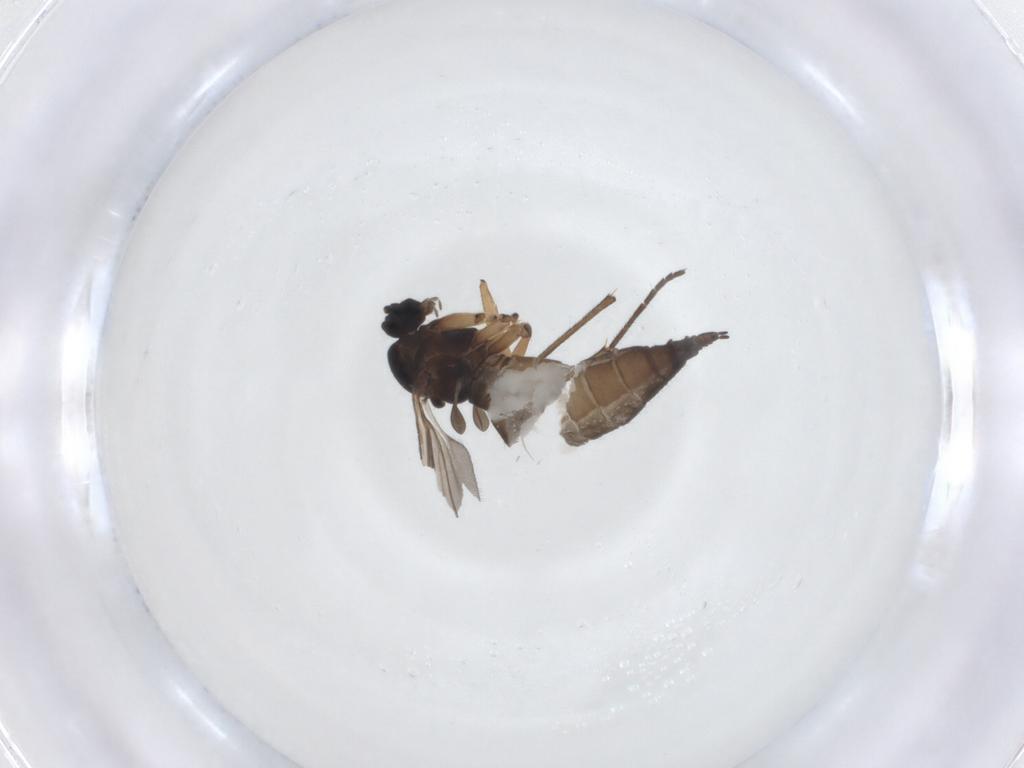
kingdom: Animalia
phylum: Arthropoda
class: Insecta
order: Diptera
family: Sciaridae
